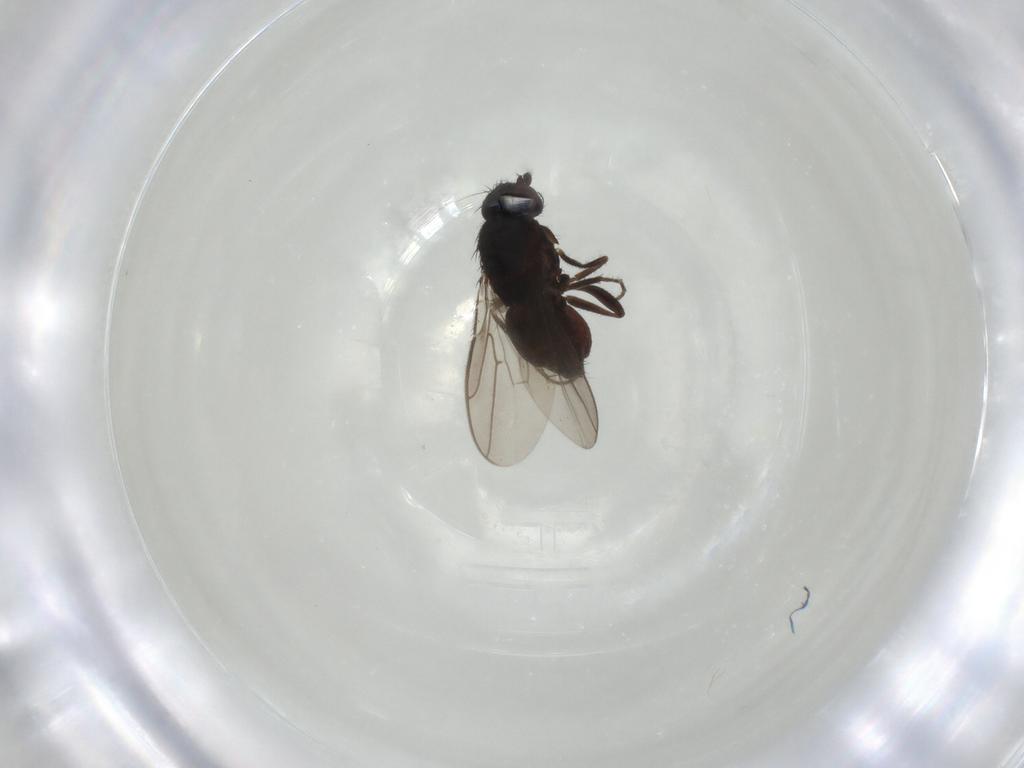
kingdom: Animalia
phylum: Arthropoda
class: Insecta
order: Diptera
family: Sphaeroceridae
